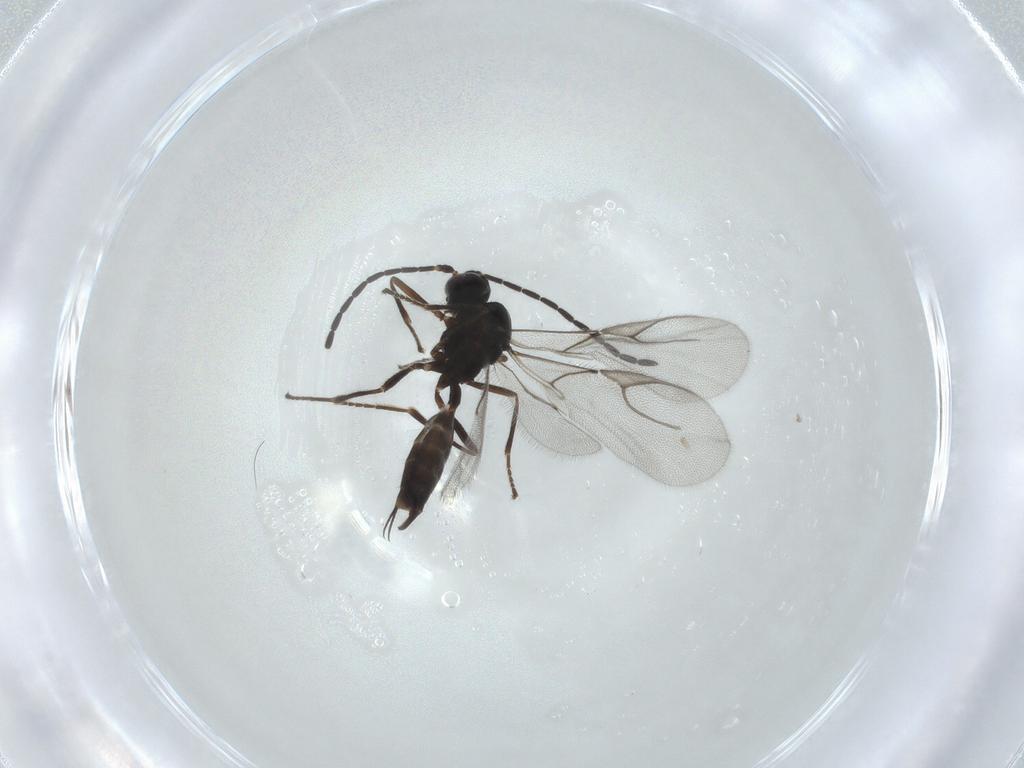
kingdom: Animalia
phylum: Arthropoda
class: Insecta
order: Hymenoptera
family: Braconidae
